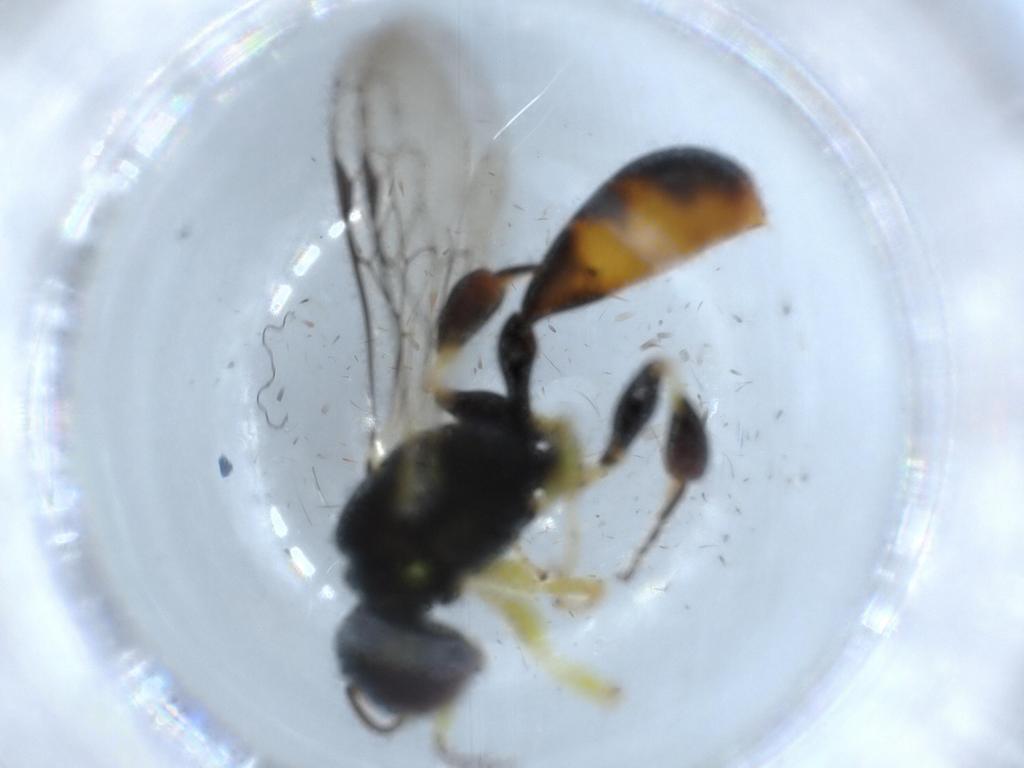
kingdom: Animalia
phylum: Arthropoda
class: Insecta
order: Hymenoptera
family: Crabronidae
